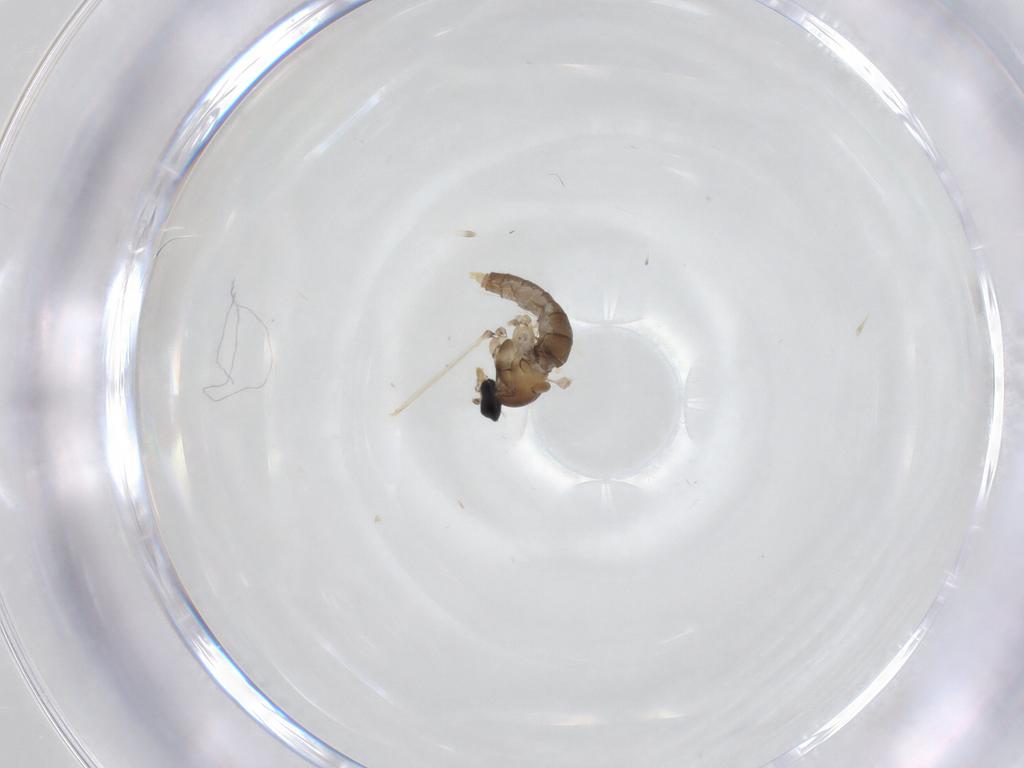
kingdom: Animalia
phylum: Arthropoda
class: Insecta
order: Diptera
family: Cecidomyiidae
